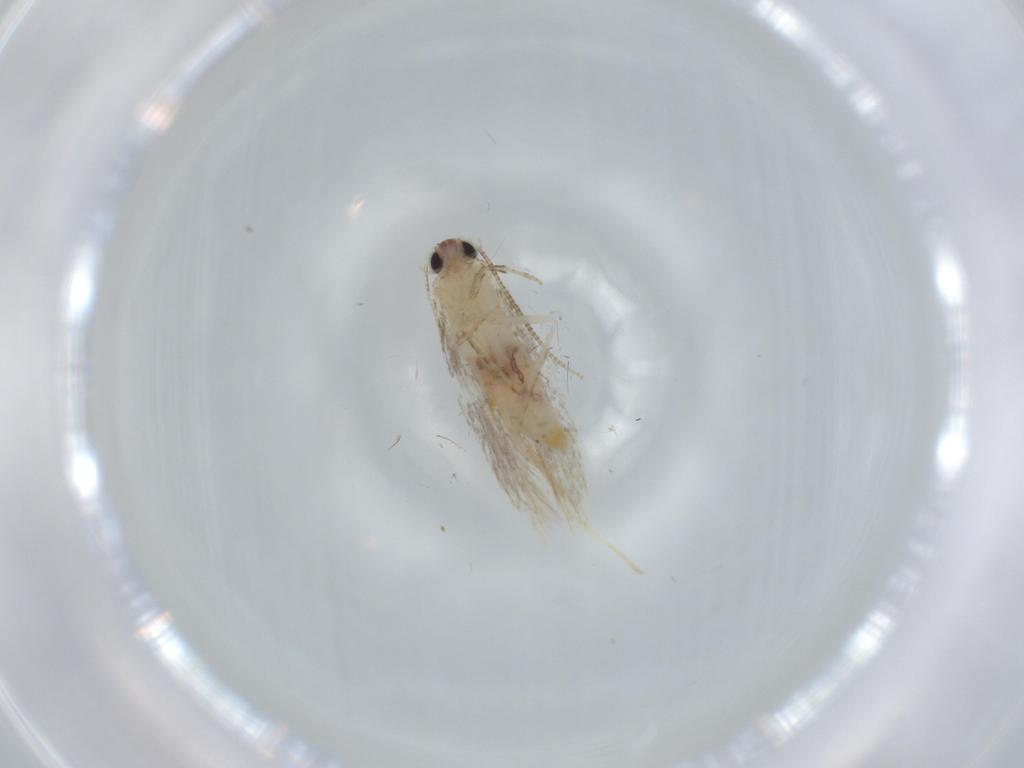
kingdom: Animalia
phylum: Arthropoda
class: Insecta
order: Lepidoptera
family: Tineidae
